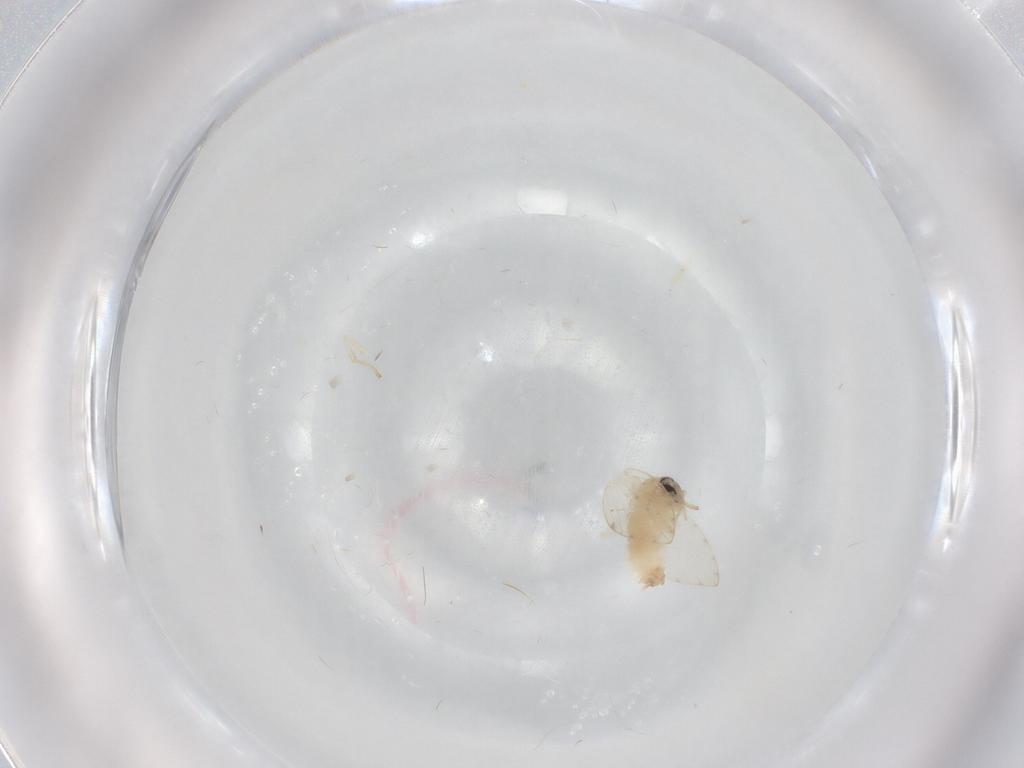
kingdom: Animalia
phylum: Arthropoda
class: Insecta
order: Diptera
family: Psychodidae
